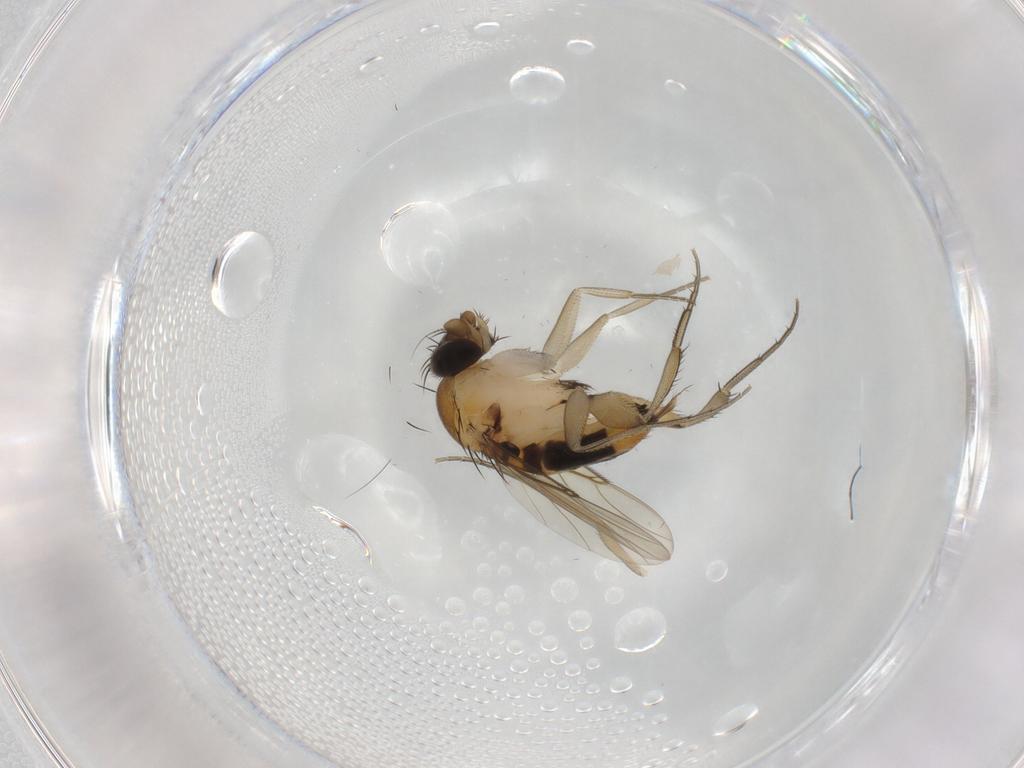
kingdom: Animalia
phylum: Arthropoda
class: Insecta
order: Diptera
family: Phoridae
